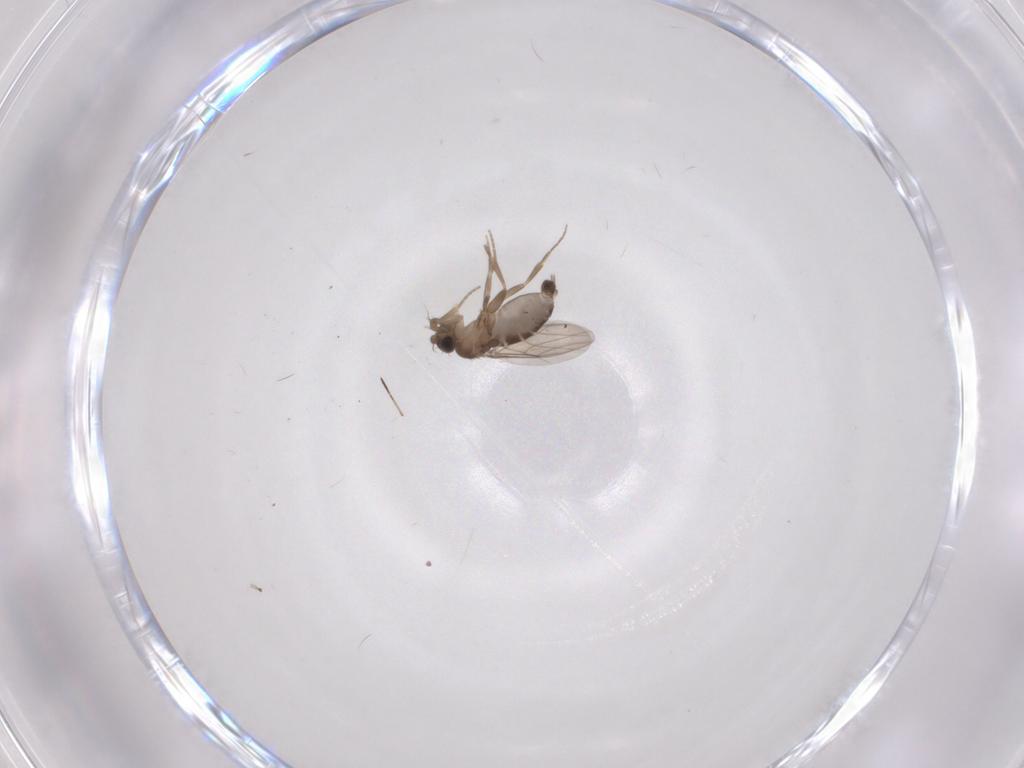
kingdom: Animalia
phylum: Arthropoda
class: Insecta
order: Diptera
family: Phoridae
